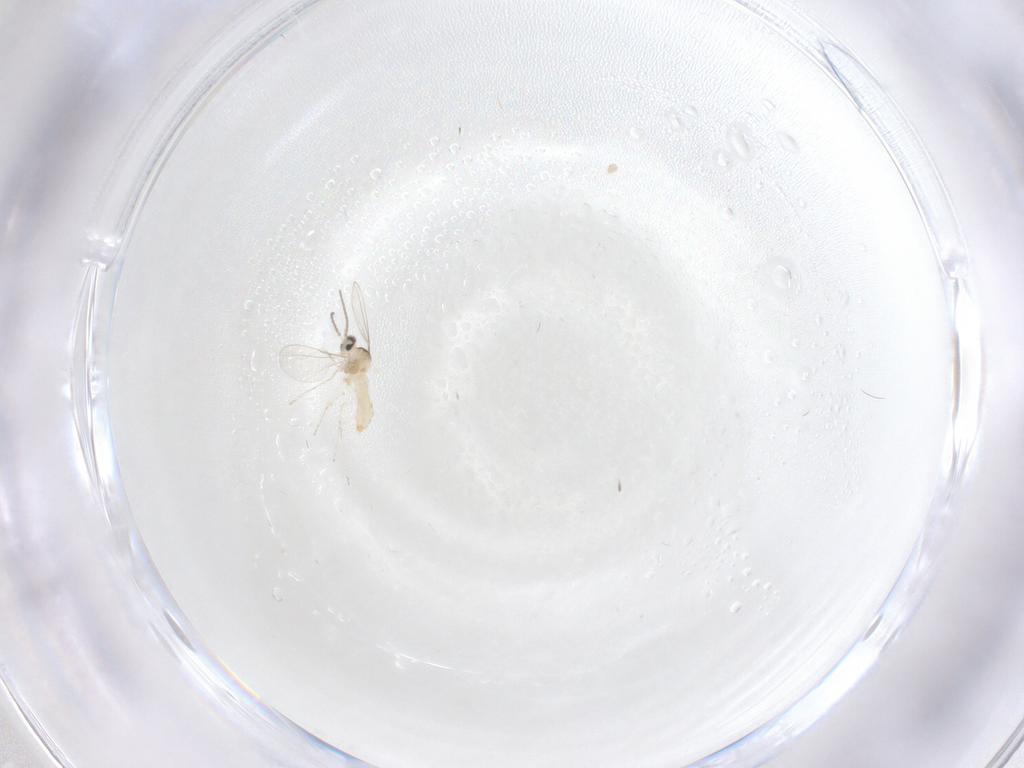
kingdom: Animalia
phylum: Arthropoda
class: Insecta
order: Diptera
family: Cecidomyiidae
